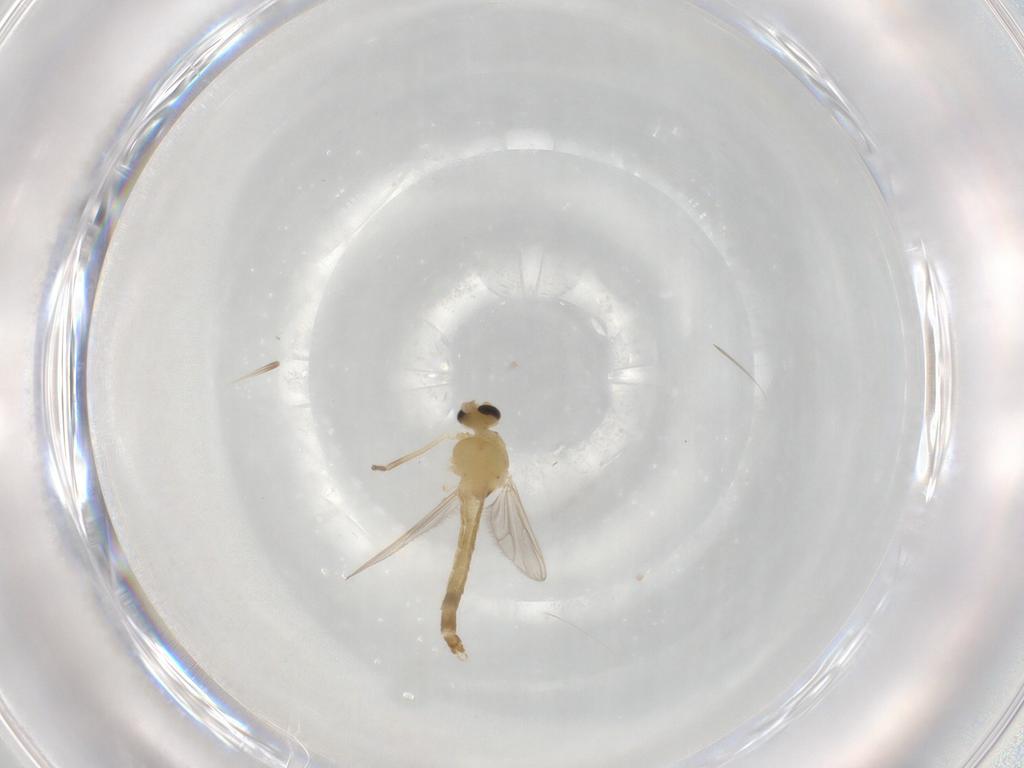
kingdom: Animalia
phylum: Arthropoda
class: Insecta
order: Diptera
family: Chironomidae
